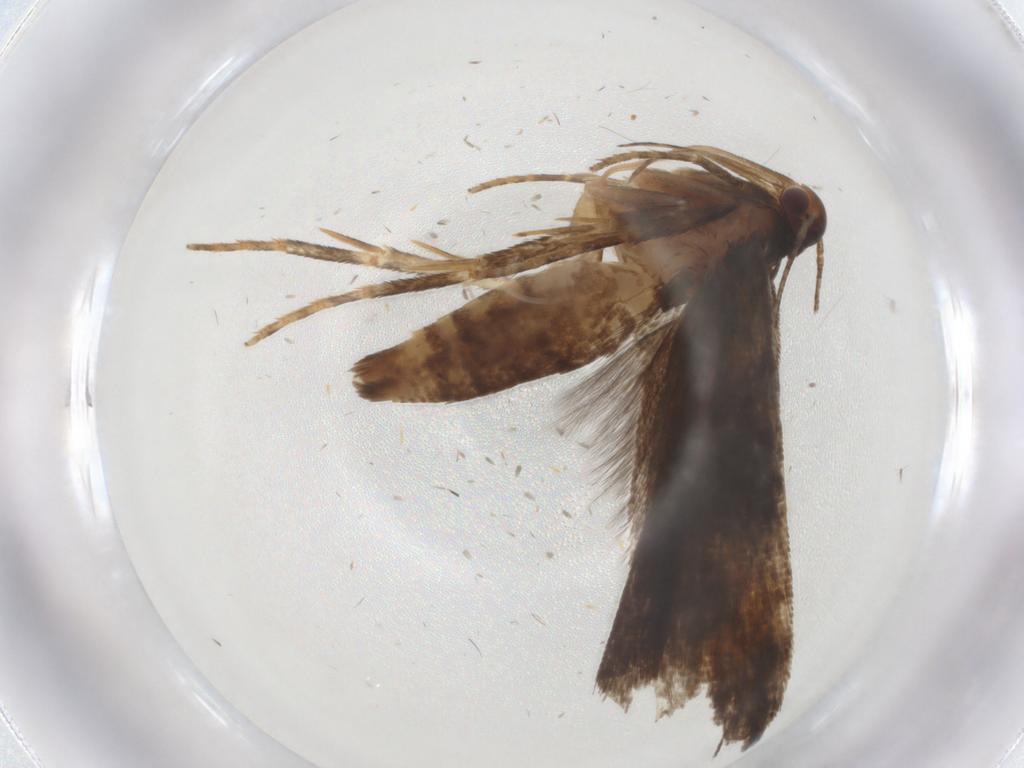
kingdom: Animalia
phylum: Arthropoda
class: Insecta
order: Lepidoptera
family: Gelechiidae
